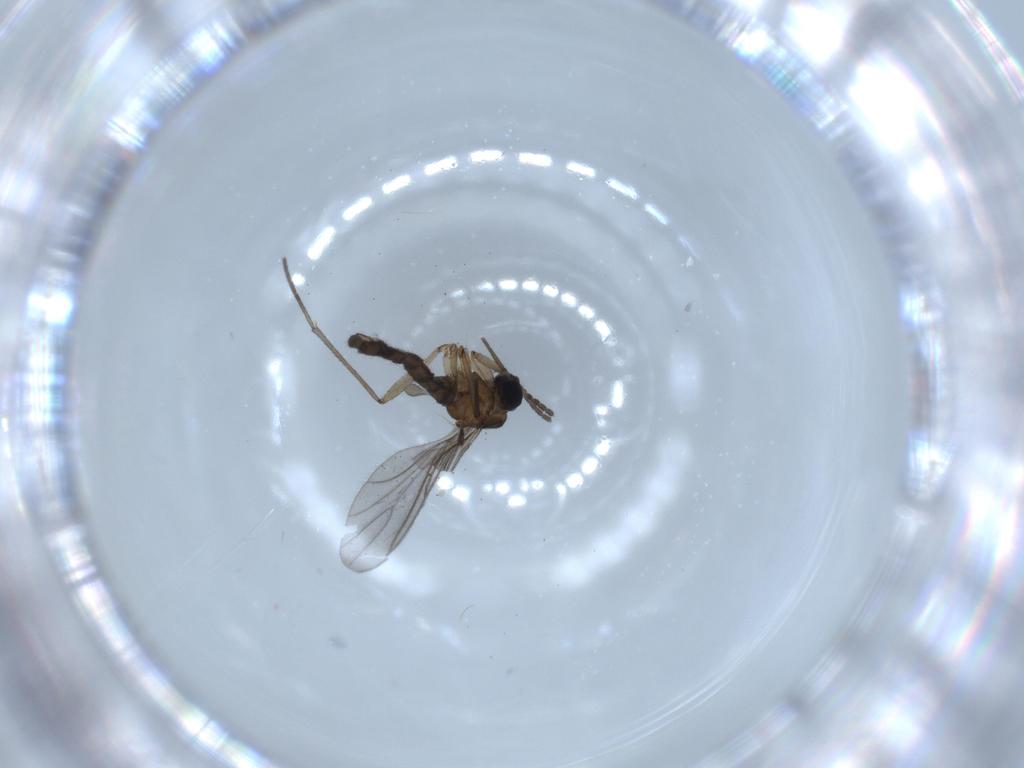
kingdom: Animalia
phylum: Arthropoda
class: Insecta
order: Diptera
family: Sciaridae
